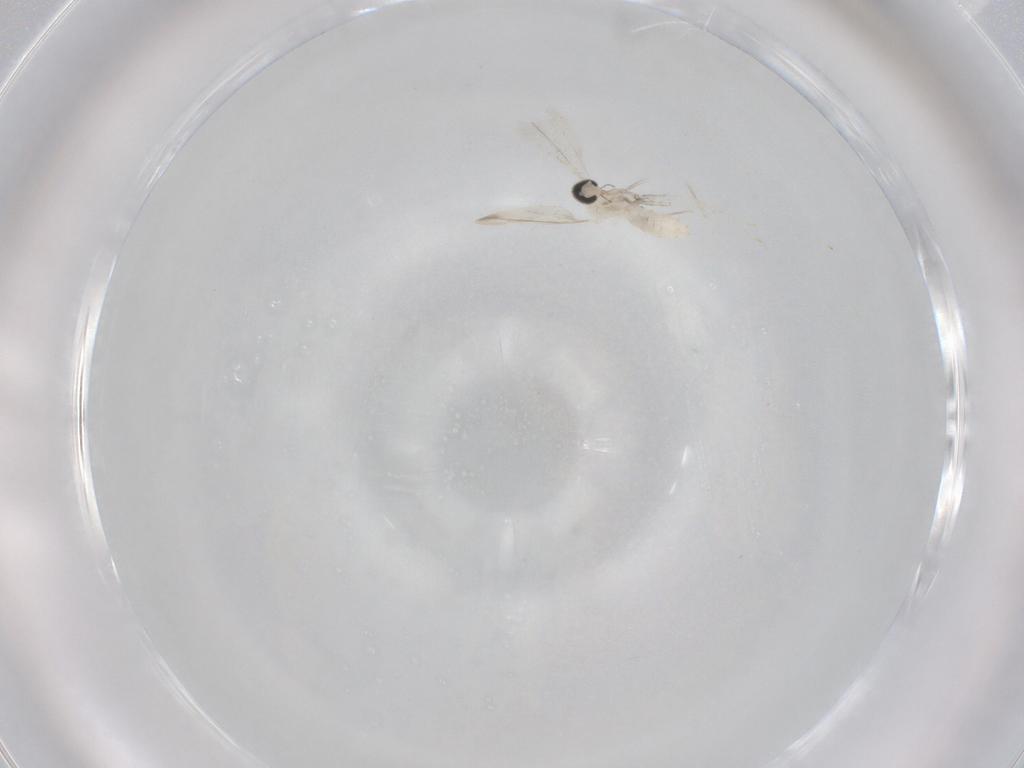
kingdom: Animalia
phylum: Arthropoda
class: Insecta
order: Diptera
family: Cecidomyiidae
